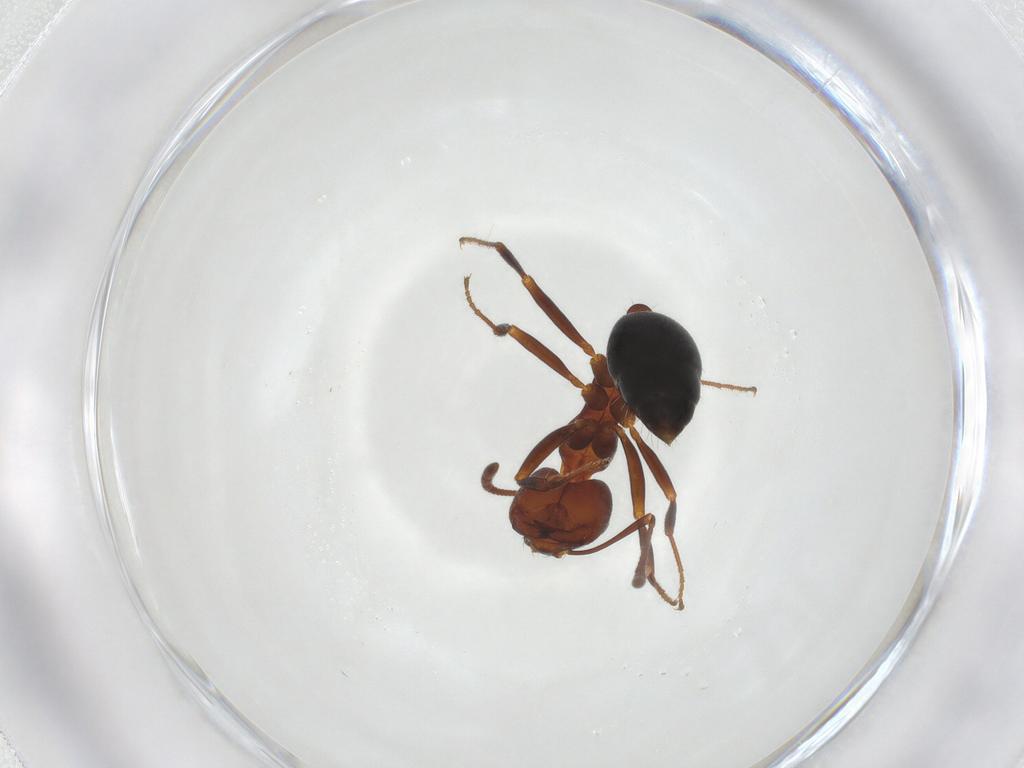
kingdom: Animalia
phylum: Arthropoda
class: Insecta
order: Hymenoptera
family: Formicidae
